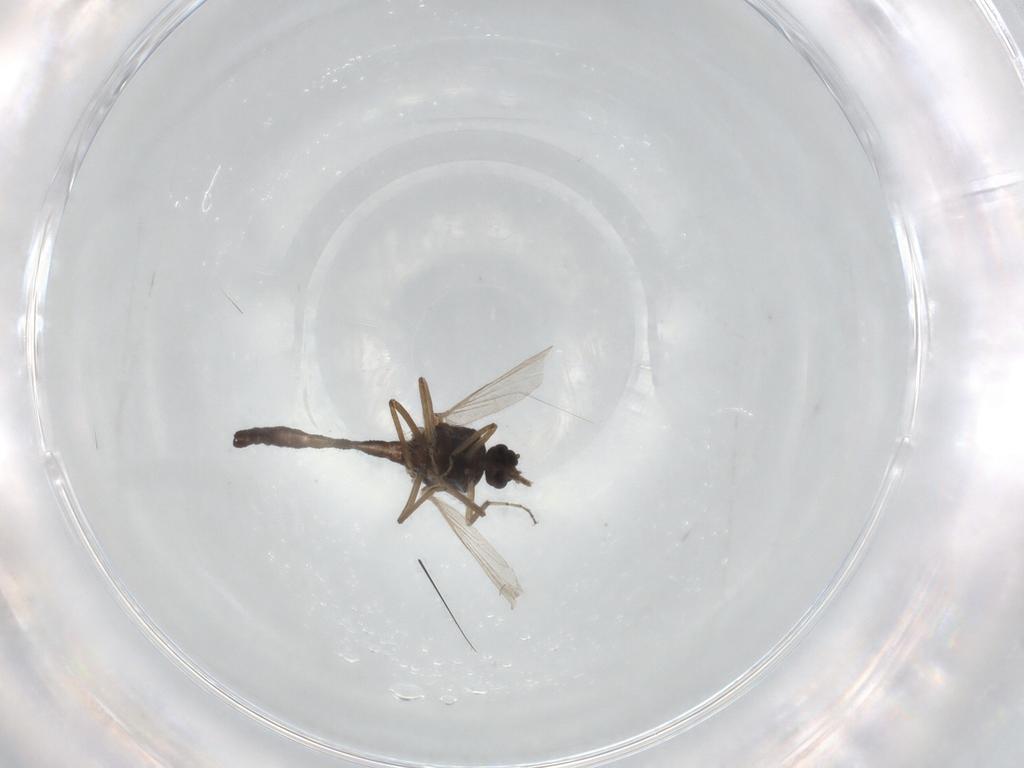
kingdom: Animalia
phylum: Arthropoda
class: Insecta
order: Diptera
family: Ceratopogonidae
